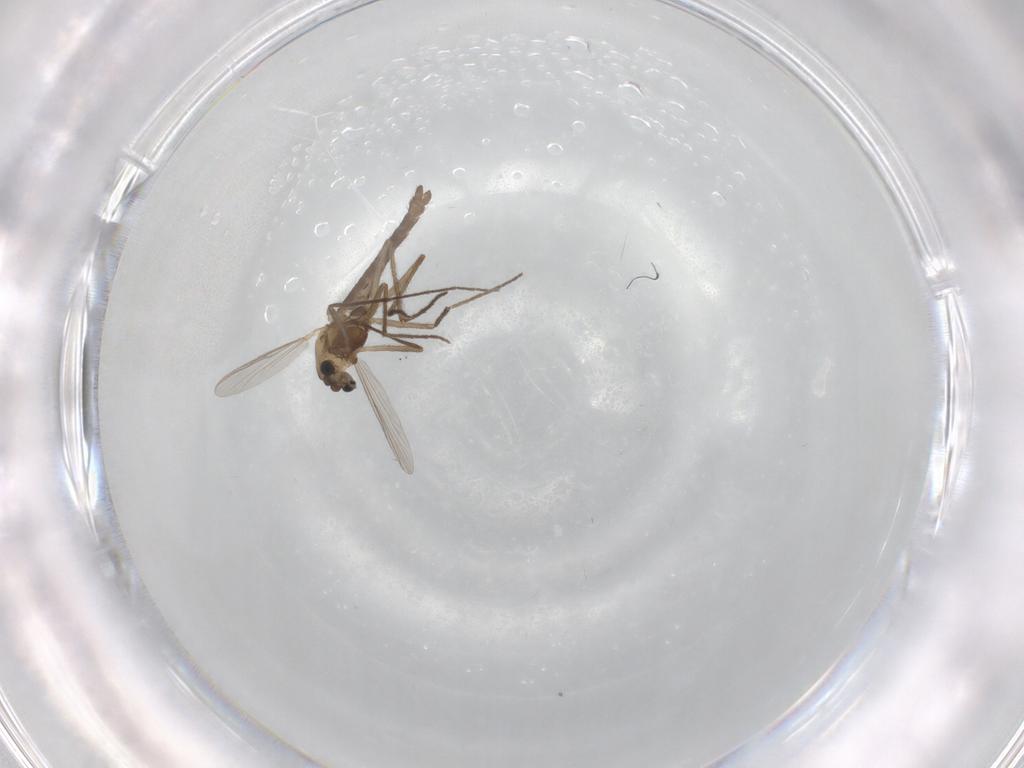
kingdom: Animalia
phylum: Arthropoda
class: Insecta
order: Diptera
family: Chironomidae
